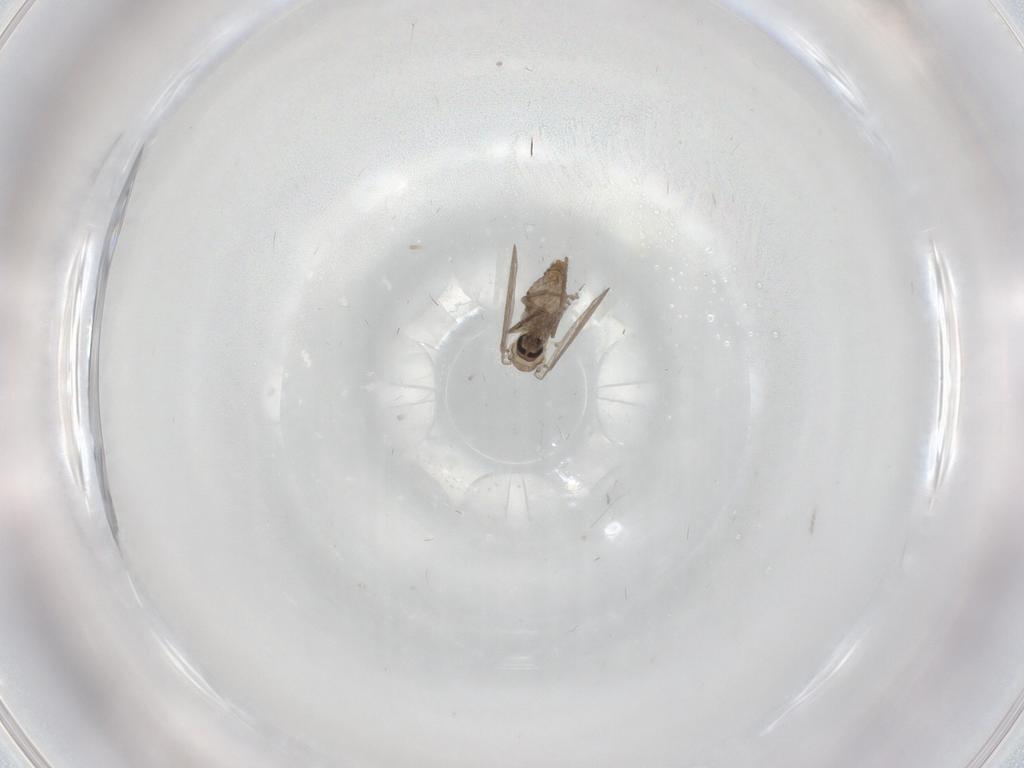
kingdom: Animalia
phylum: Arthropoda
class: Insecta
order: Diptera
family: Psychodidae
